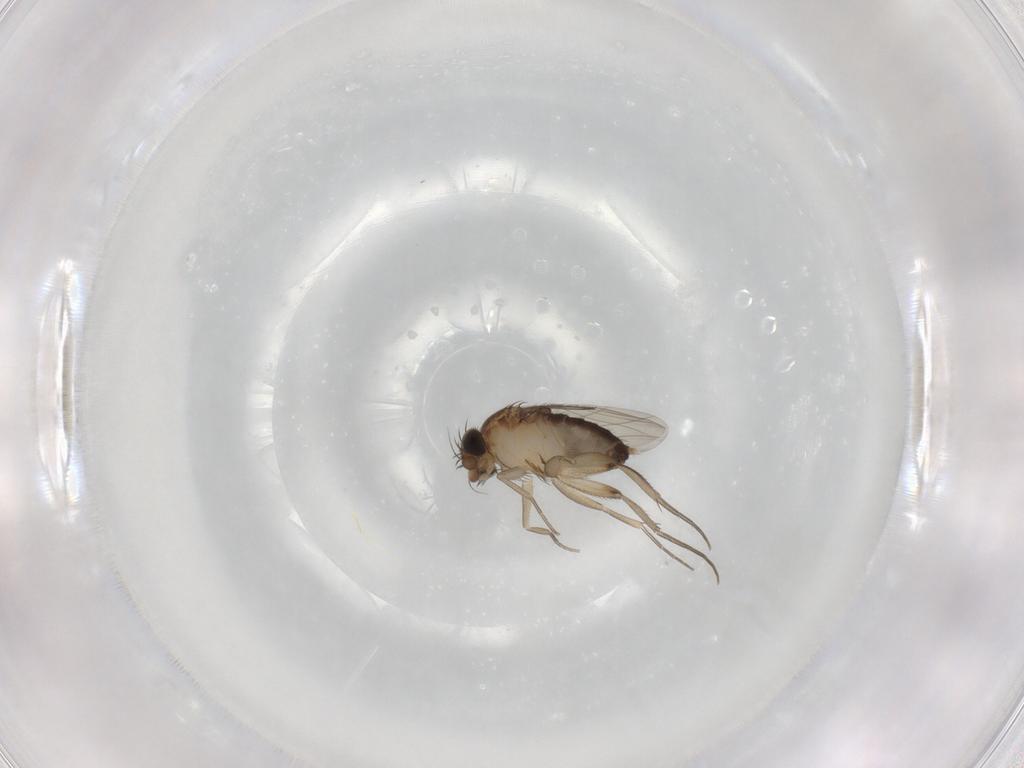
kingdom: Animalia
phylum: Arthropoda
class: Insecta
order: Diptera
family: Phoridae
